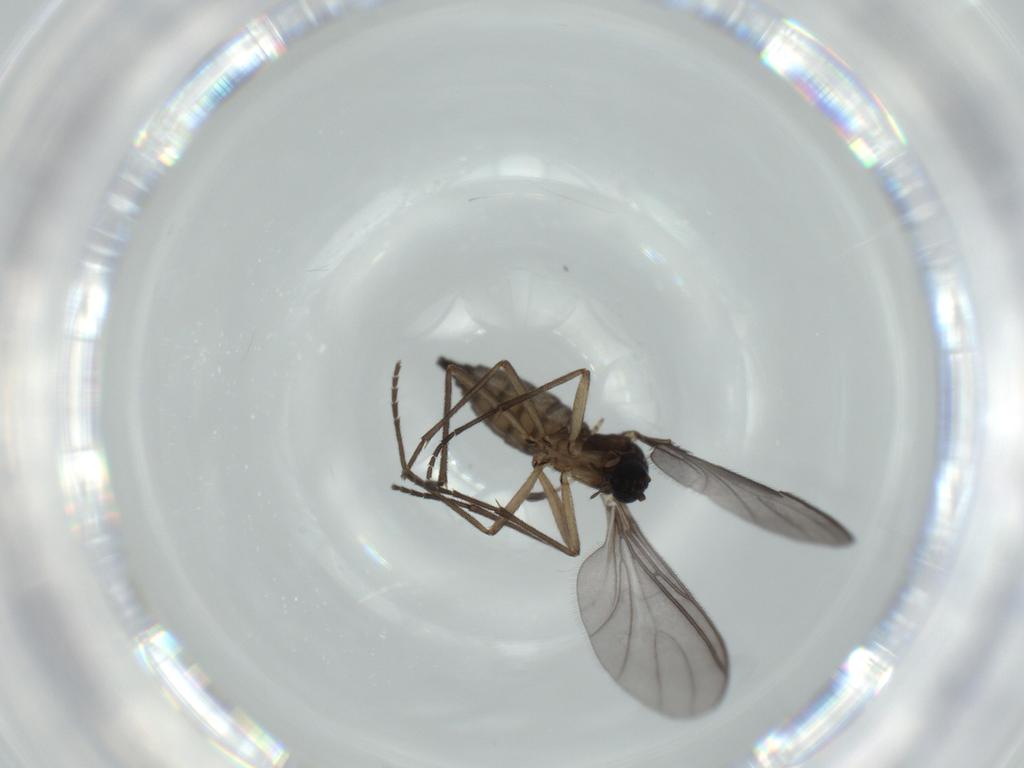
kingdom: Animalia
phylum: Arthropoda
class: Insecta
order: Diptera
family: Sciaridae
